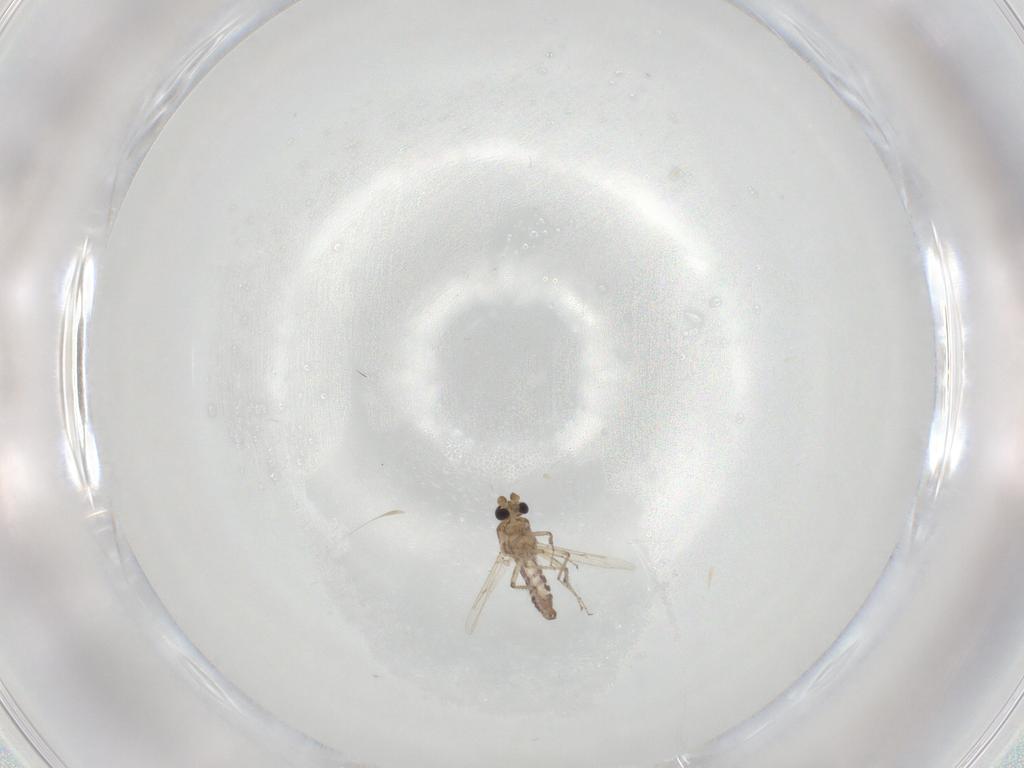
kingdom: Animalia
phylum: Arthropoda
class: Insecta
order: Diptera
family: Ceratopogonidae
